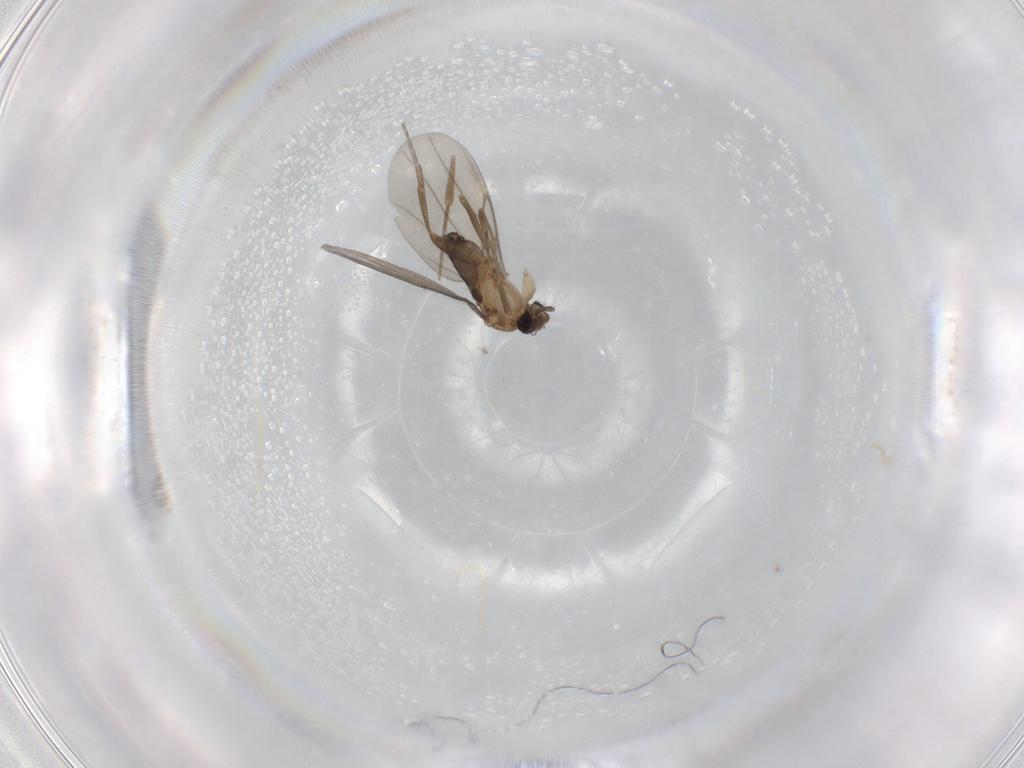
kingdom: Animalia
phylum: Arthropoda
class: Insecta
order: Diptera
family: Phoridae
